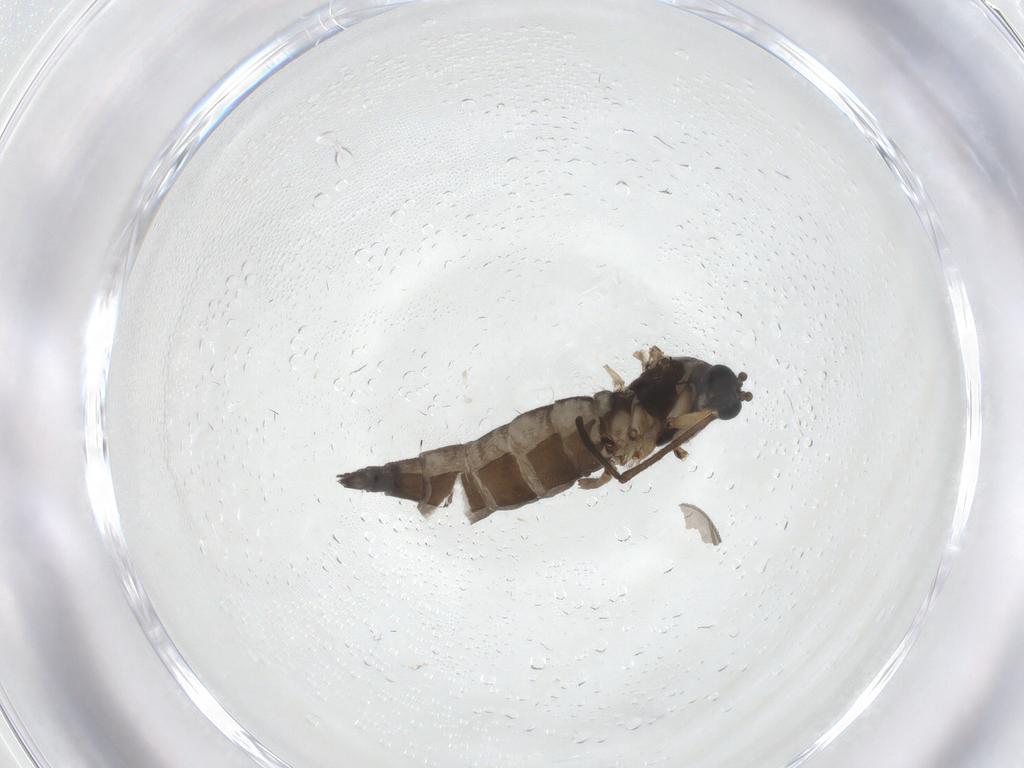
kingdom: Animalia
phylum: Arthropoda
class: Insecta
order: Diptera
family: Sciaridae
